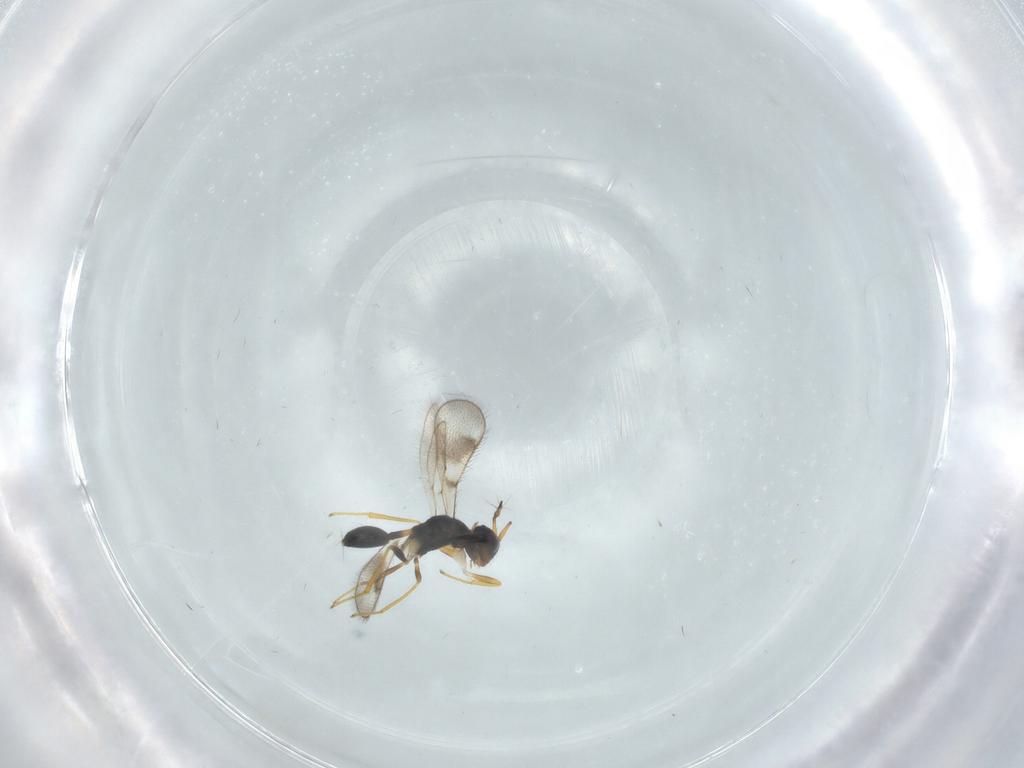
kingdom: Animalia
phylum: Arthropoda
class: Insecta
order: Hymenoptera
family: Diparidae
